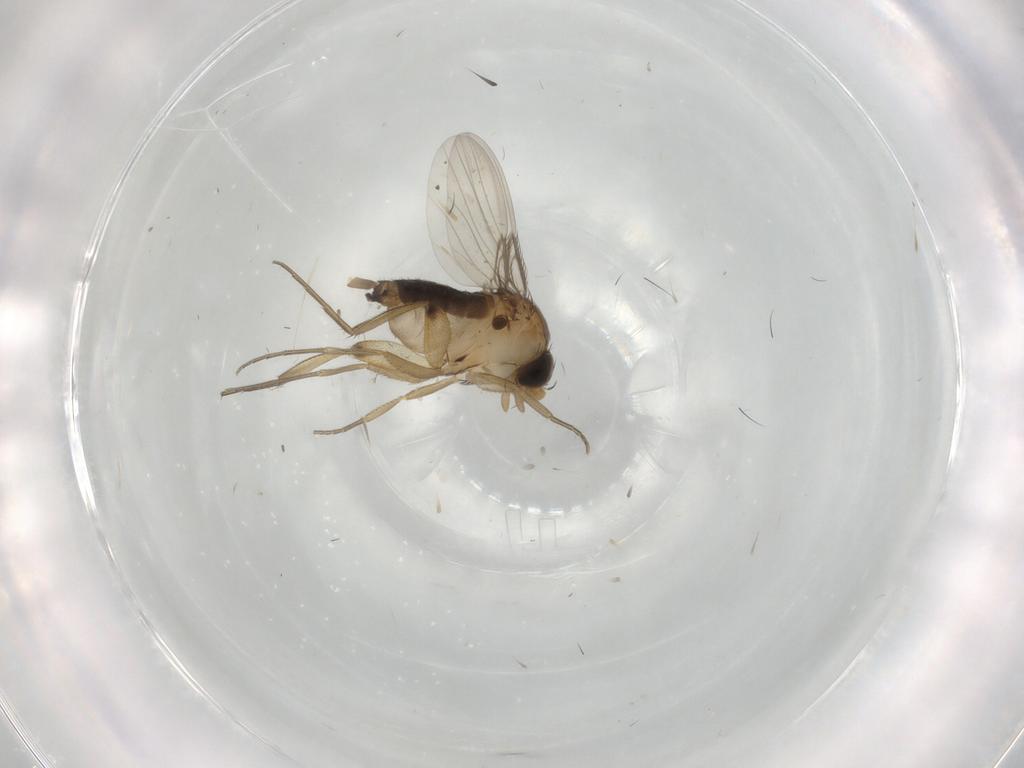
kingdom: Animalia
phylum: Arthropoda
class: Insecta
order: Diptera
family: Phoridae
